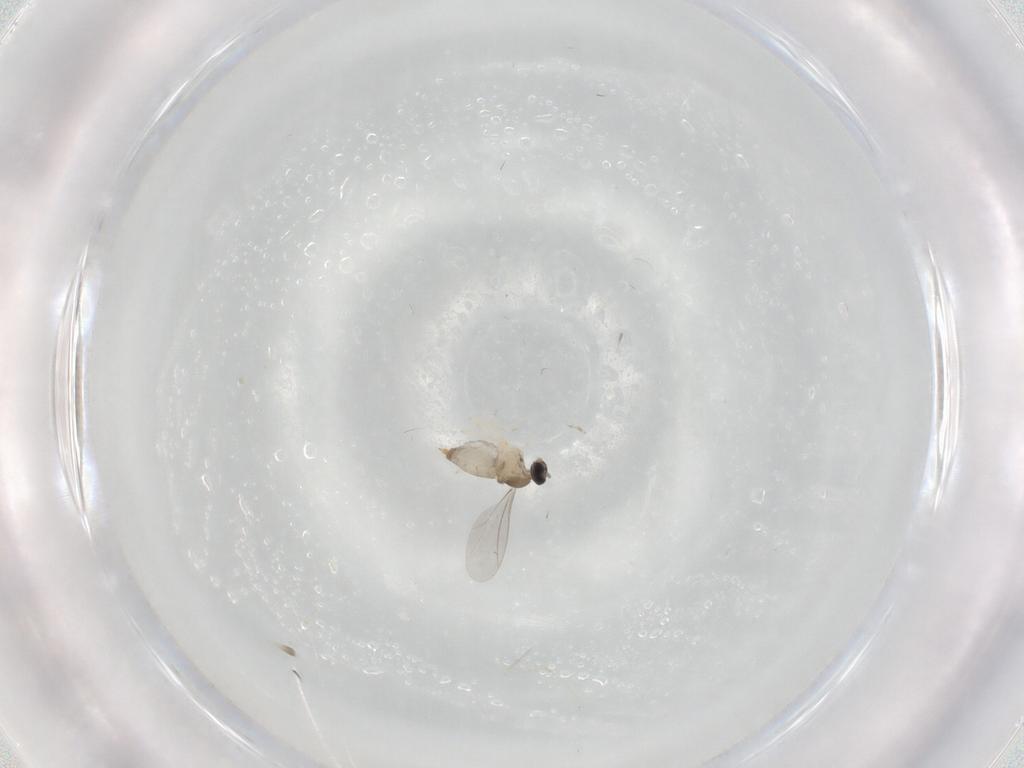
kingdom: Animalia
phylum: Arthropoda
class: Insecta
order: Diptera
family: Cecidomyiidae
